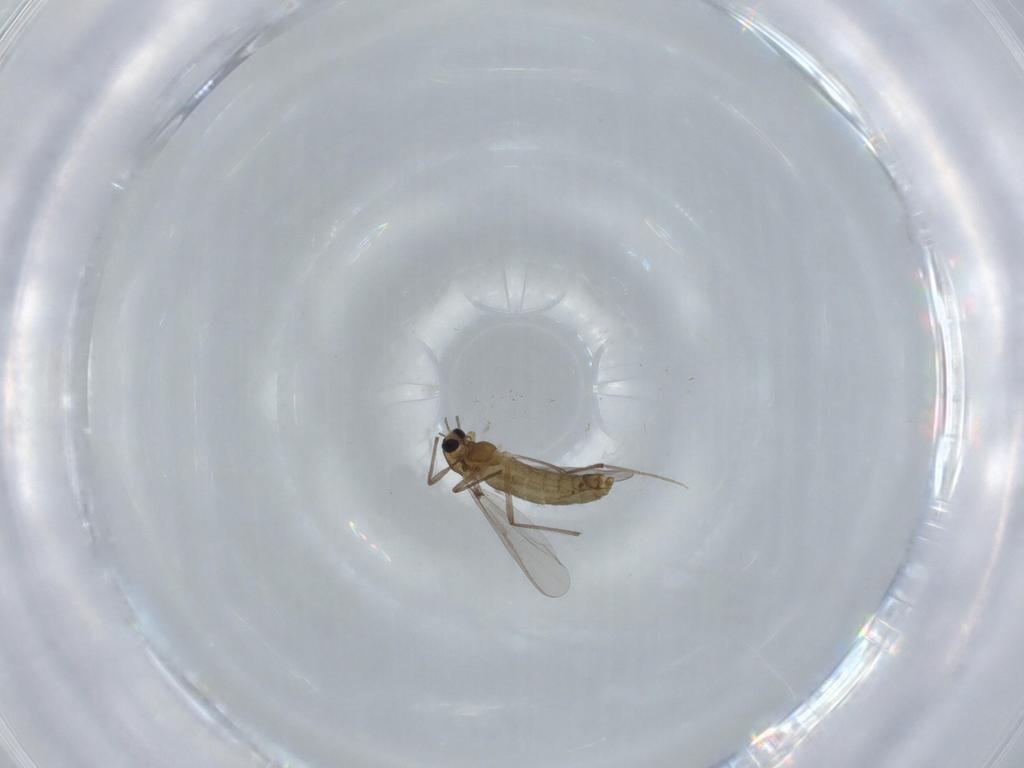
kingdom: Animalia
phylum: Arthropoda
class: Insecta
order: Diptera
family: Chironomidae
